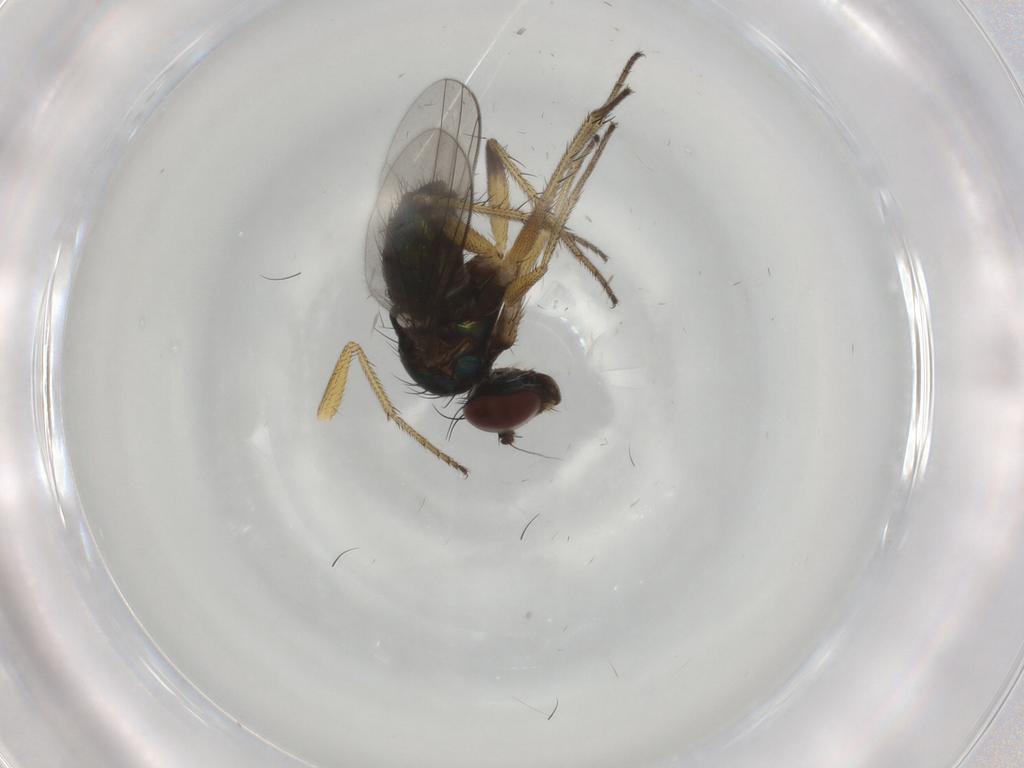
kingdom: Animalia
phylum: Arthropoda
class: Insecta
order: Diptera
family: Dolichopodidae
